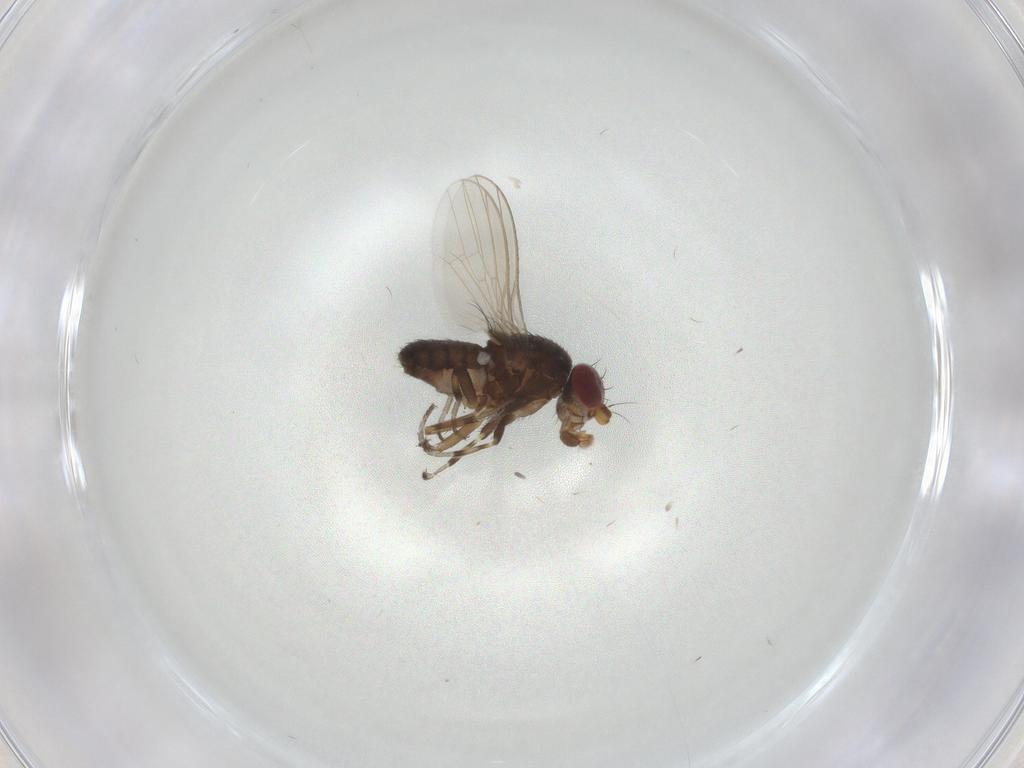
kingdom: Animalia
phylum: Arthropoda
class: Insecta
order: Diptera
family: Heleomyzidae
